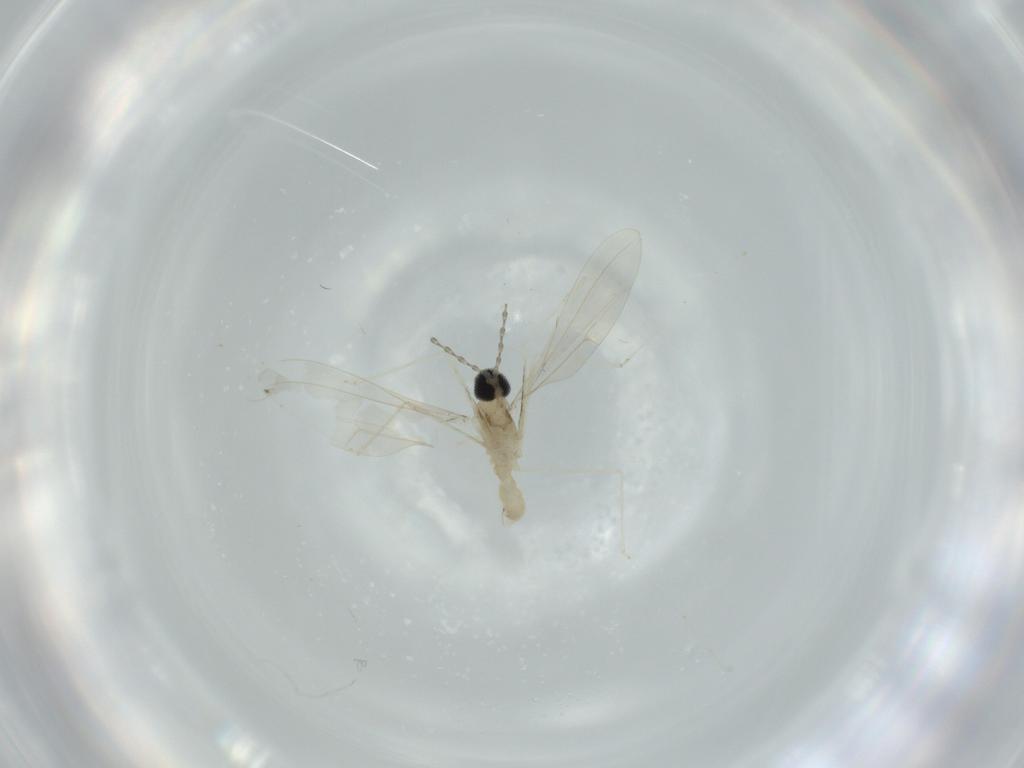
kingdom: Animalia
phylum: Arthropoda
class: Insecta
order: Diptera
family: Cecidomyiidae
